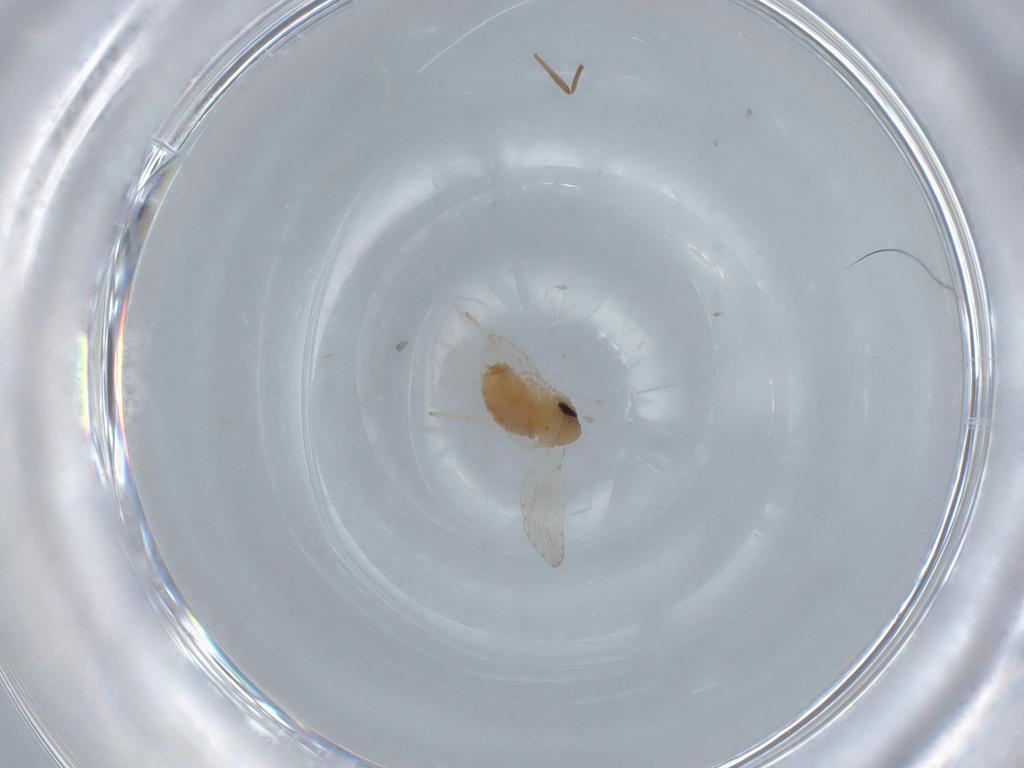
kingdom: Animalia
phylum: Arthropoda
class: Insecta
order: Diptera
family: Psychodidae
